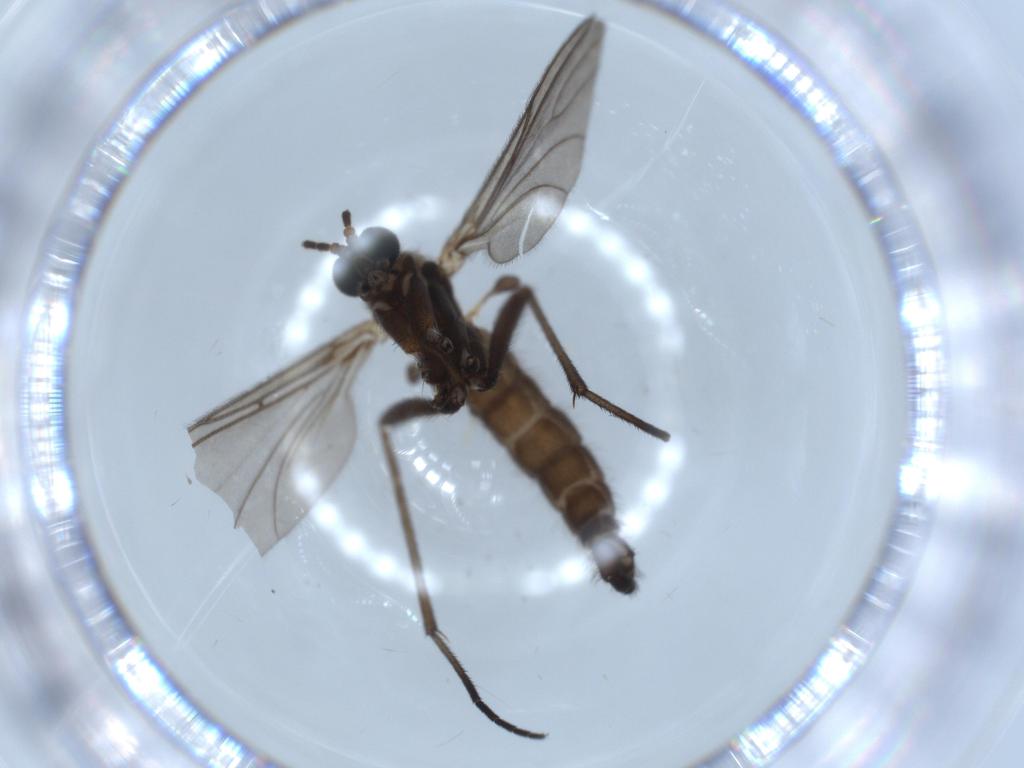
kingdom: Animalia
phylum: Arthropoda
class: Insecta
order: Diptera
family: Sciaridae
